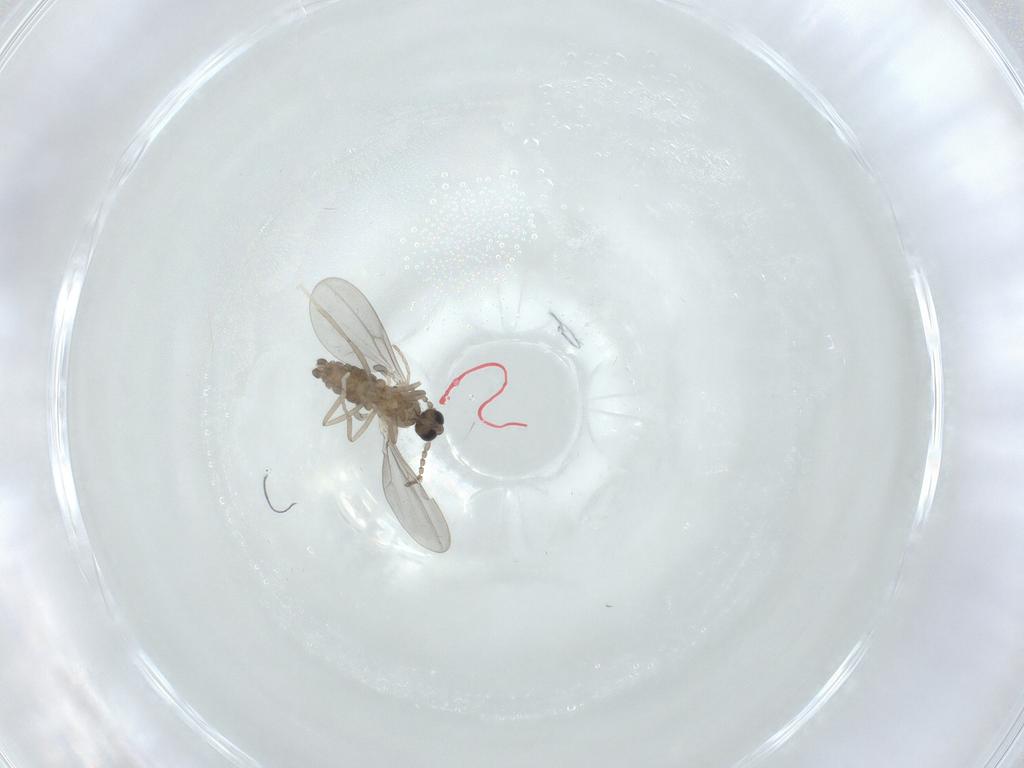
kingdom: Animalia
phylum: Arthropoda
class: Insecta
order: Diptera
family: Cecidomyiidae
